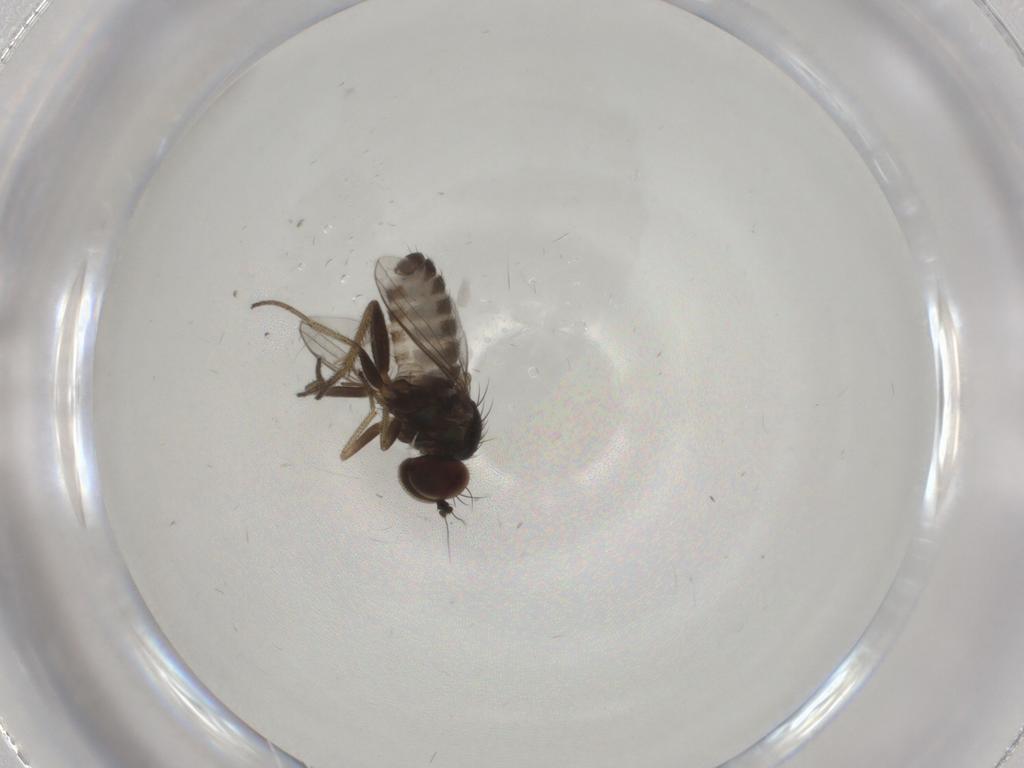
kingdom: Animalia
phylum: Arthropoda
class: Insecta
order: Diptera
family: Chironomidae
